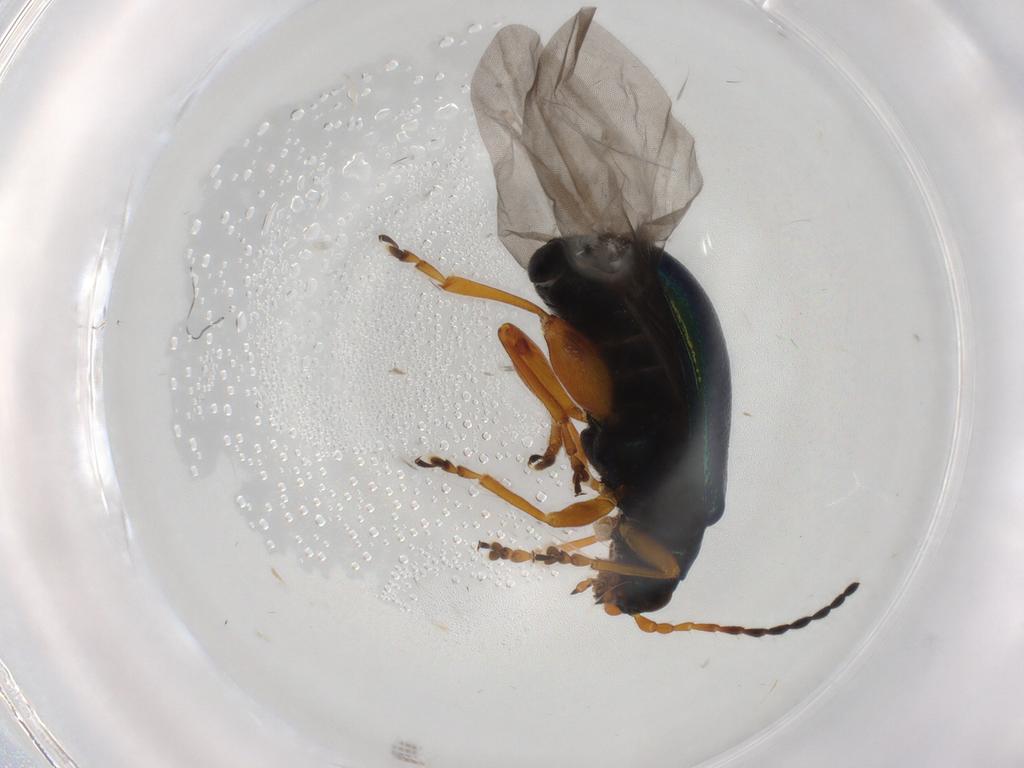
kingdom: Animalia
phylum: Arthropoda
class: Insecta
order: Coleoptera
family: Chrysomelidae
